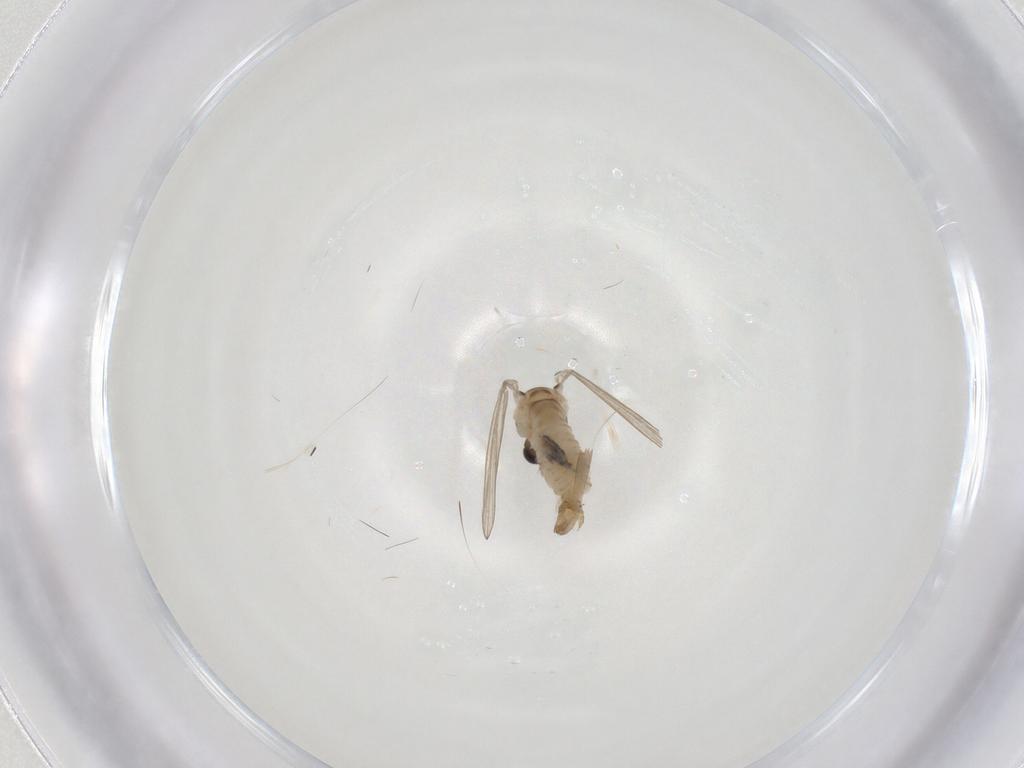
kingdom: Animalia
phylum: Arthropoda
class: Insecta
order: Diptera
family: Psychodidae
